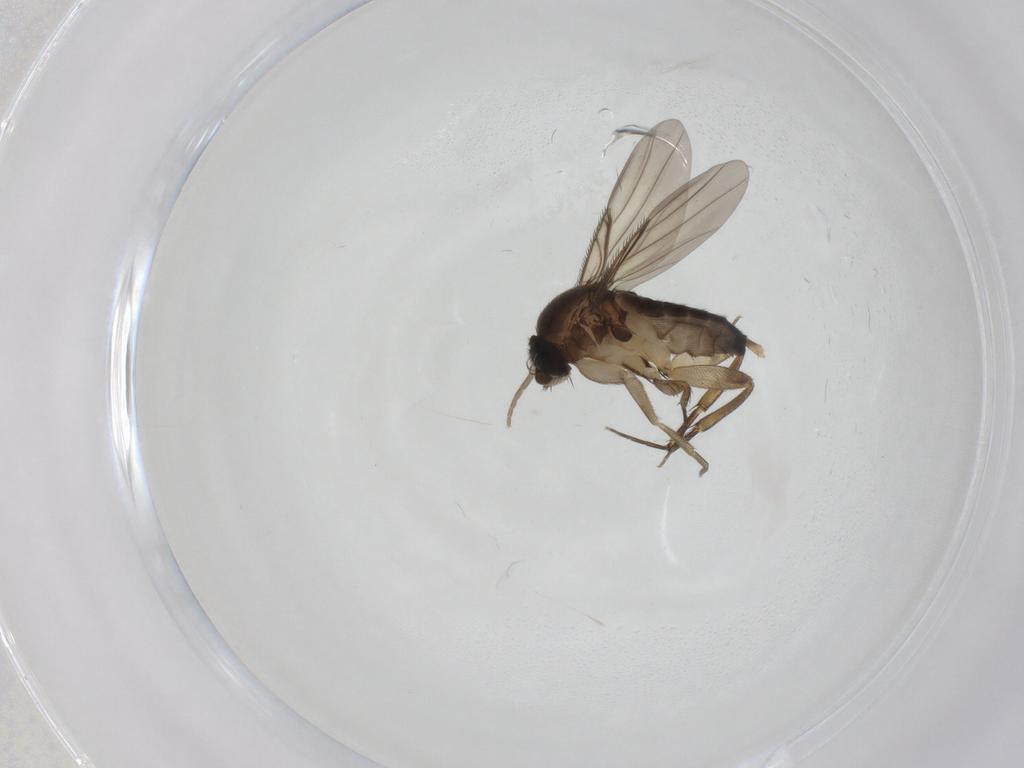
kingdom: Animalia
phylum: Arthropoda
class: Insecta
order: Diptera
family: Phoridae
